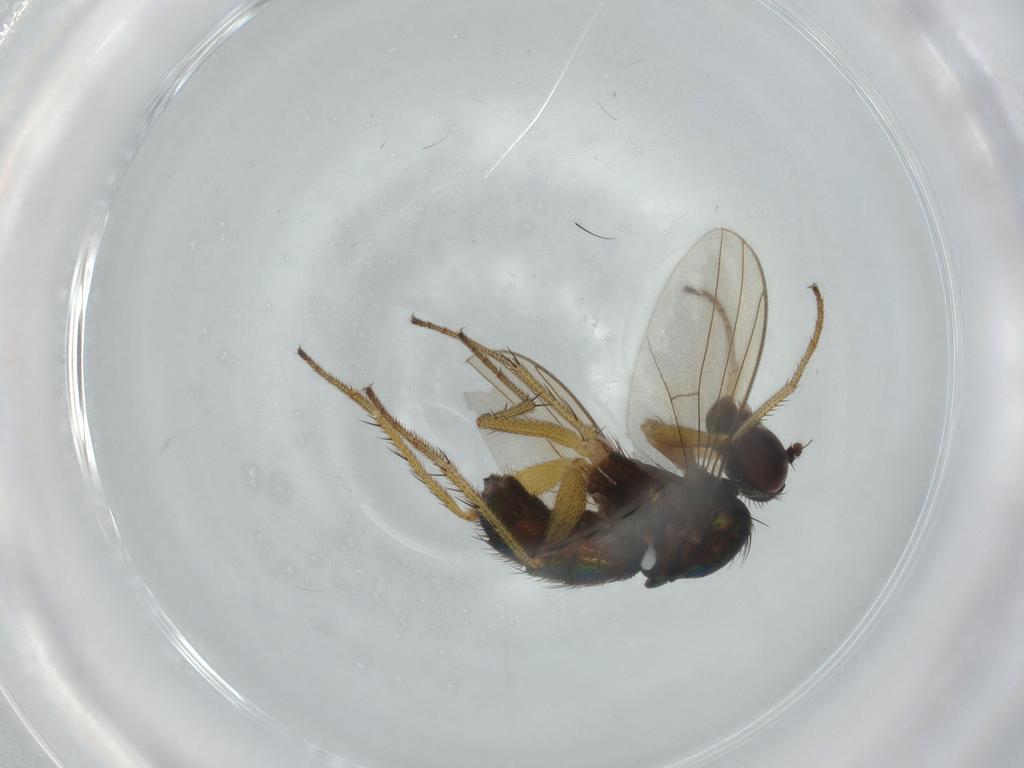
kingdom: Animalia
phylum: Arthropoda
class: Insecta
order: Diptera
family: Dolichopodidae
